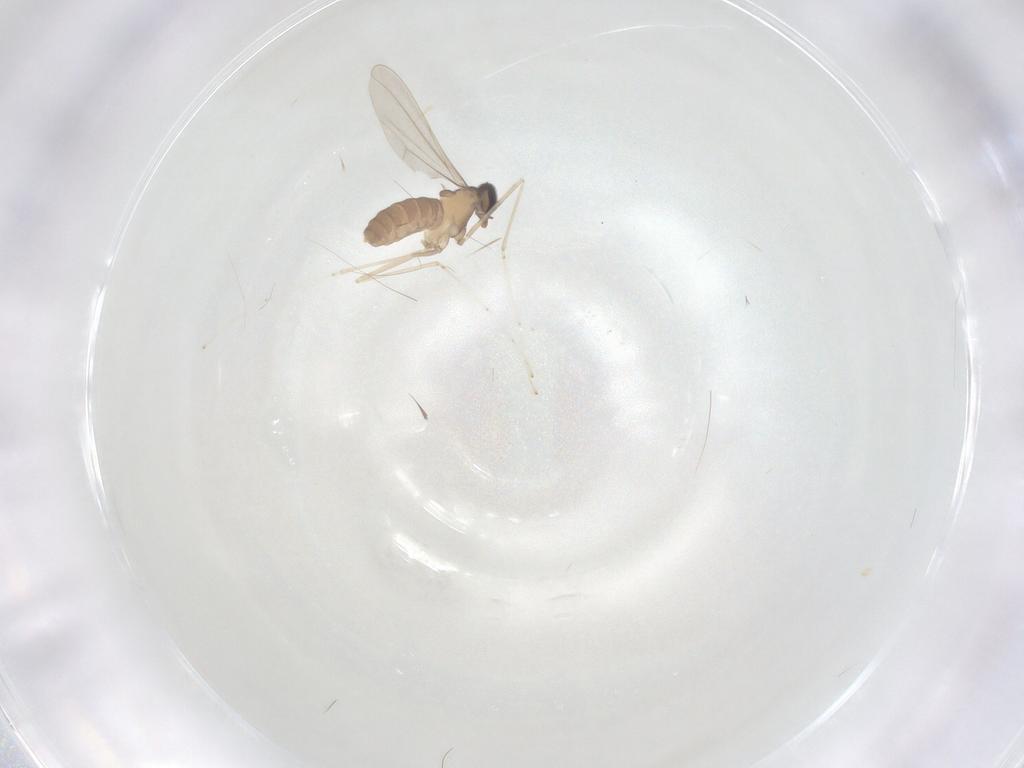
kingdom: Animalia
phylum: Arthropoda
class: Insecta
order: Diptera
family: Cecidomyiidae
